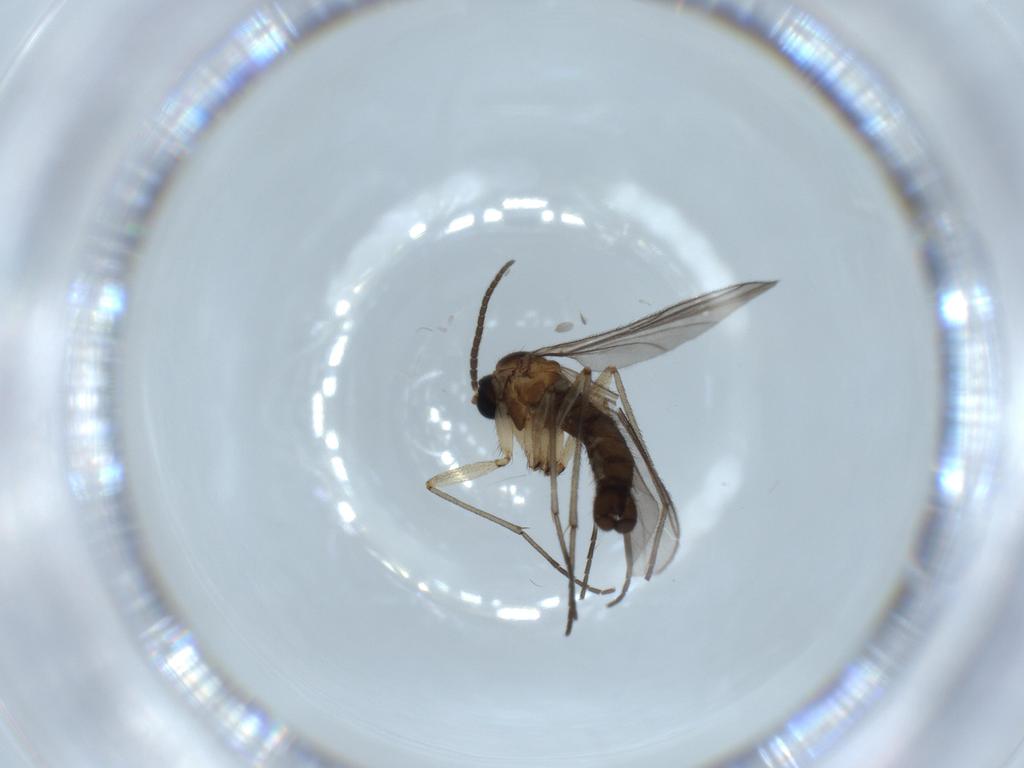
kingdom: Animalia
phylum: Arthropoda
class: Insecta
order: Diptera
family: Sciaridae
